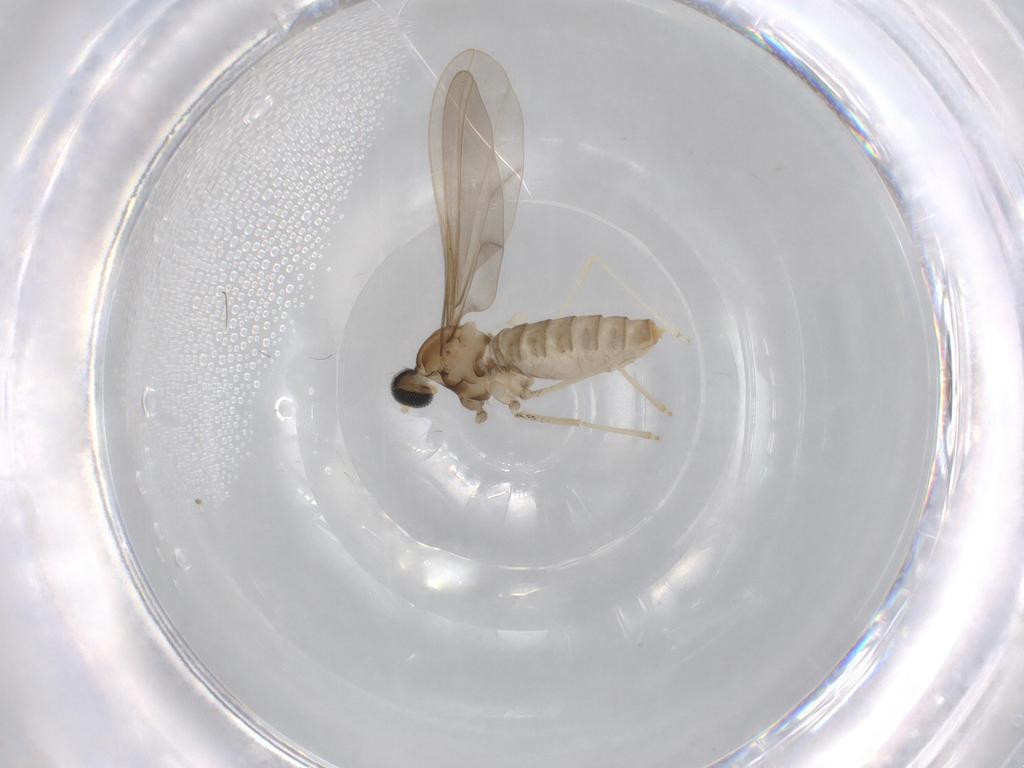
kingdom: Animalia
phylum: Arthropoda
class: Insecta
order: Diptera
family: Cecidomyiidae
